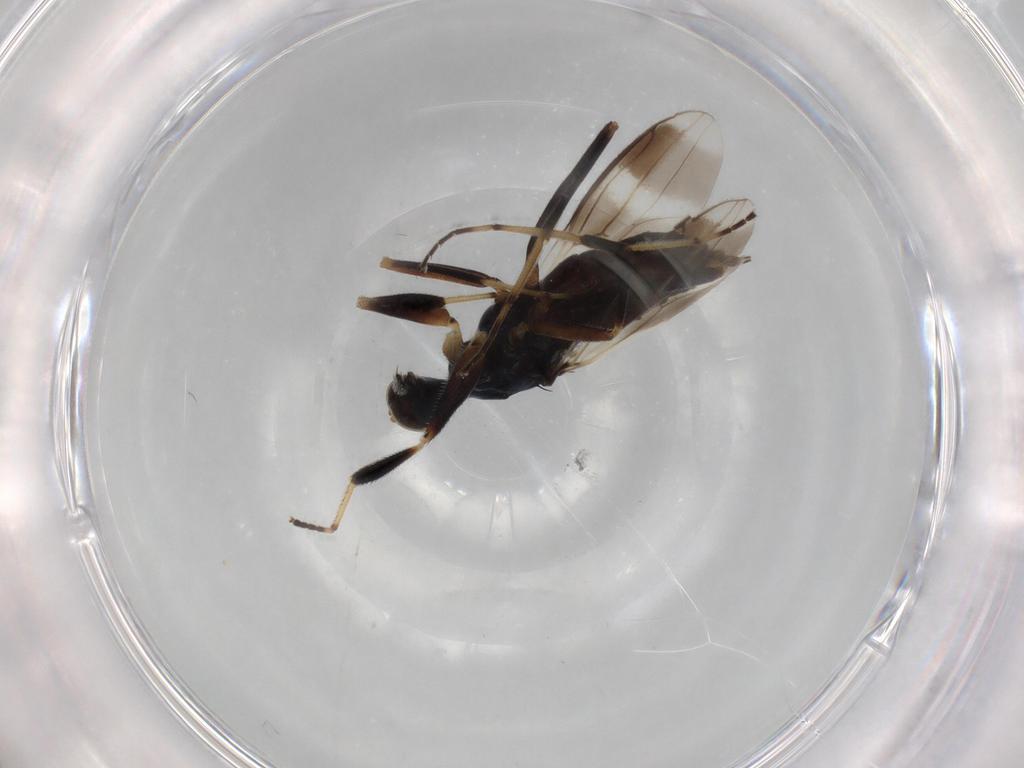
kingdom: Animalia
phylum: Arthropoda
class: Insecta
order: Diptera
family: Hybotidae
